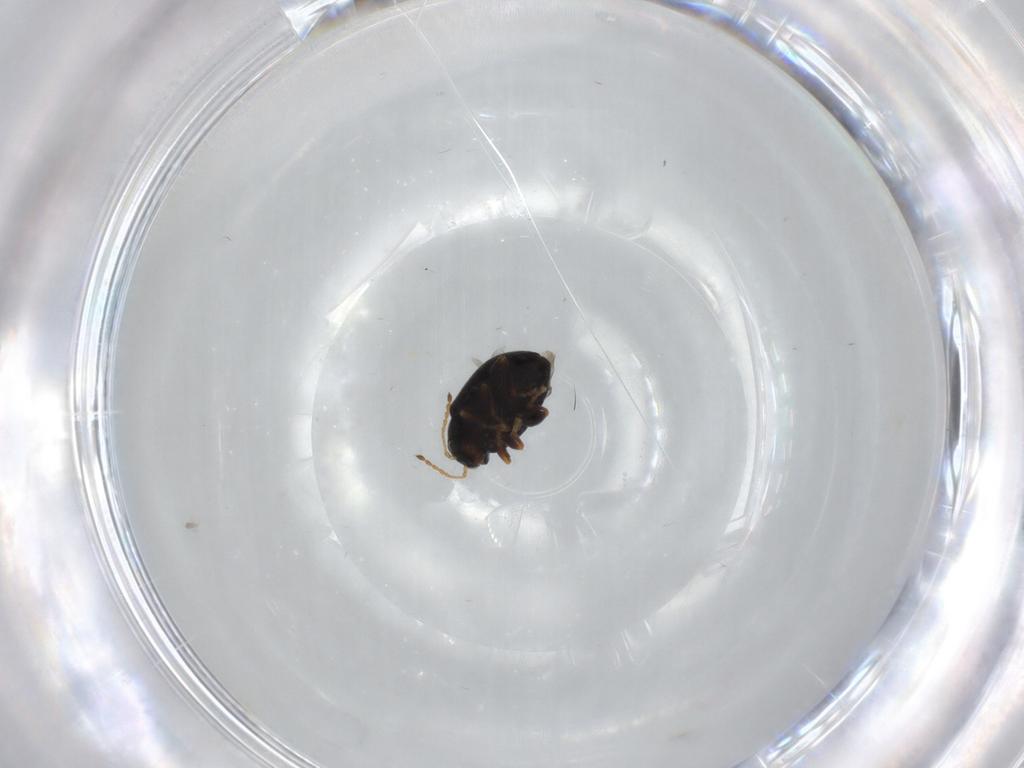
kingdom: Animalia
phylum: Arthropoda
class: Insecta
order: Coleoptera
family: Chrysomelidae
